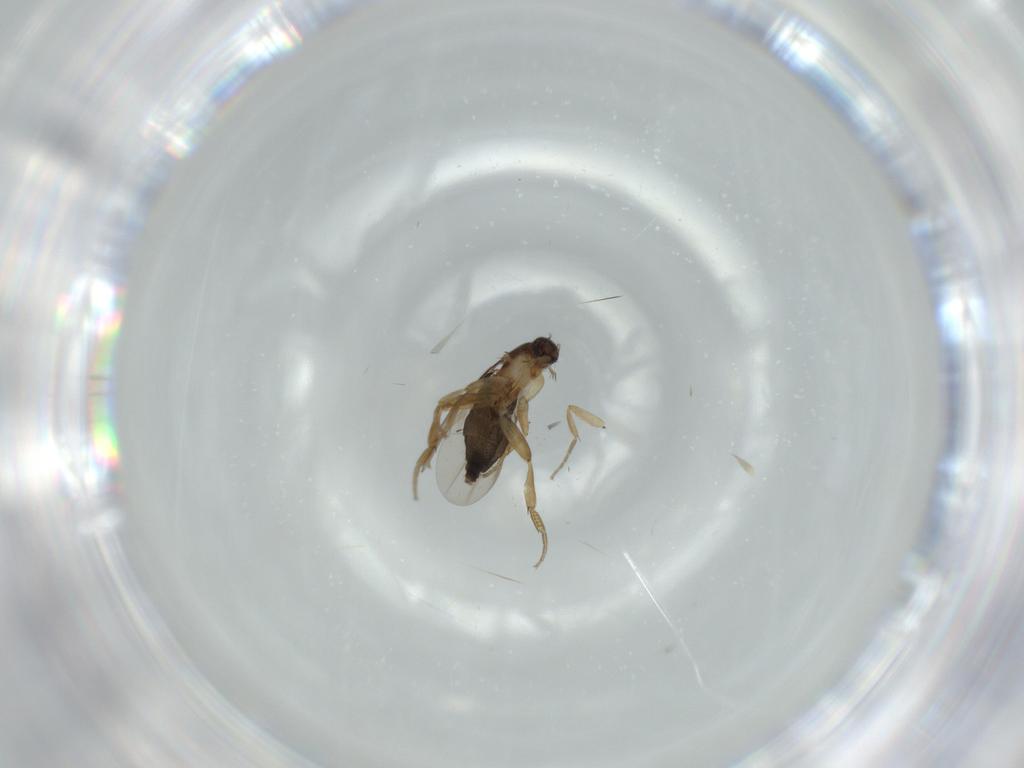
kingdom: Animalia
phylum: Arthropoda
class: Insecta
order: Diptera
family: Phoridae
